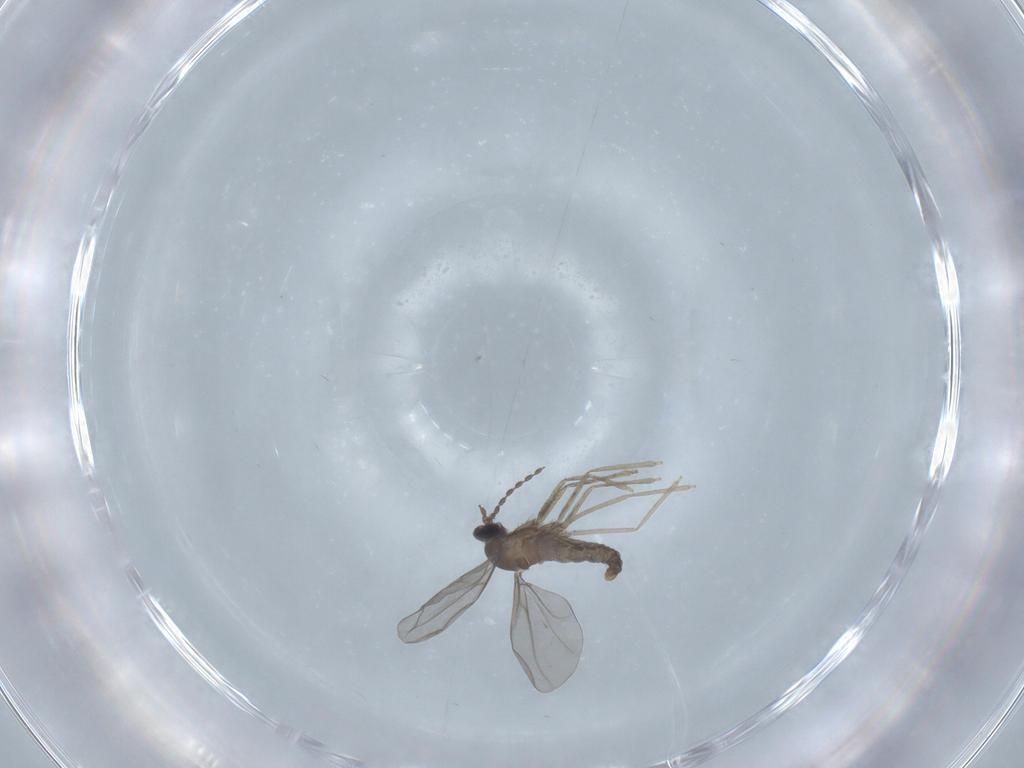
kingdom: Animalia
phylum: Arthropoda
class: Insecta
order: Diptera
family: Cecidomyiidae
